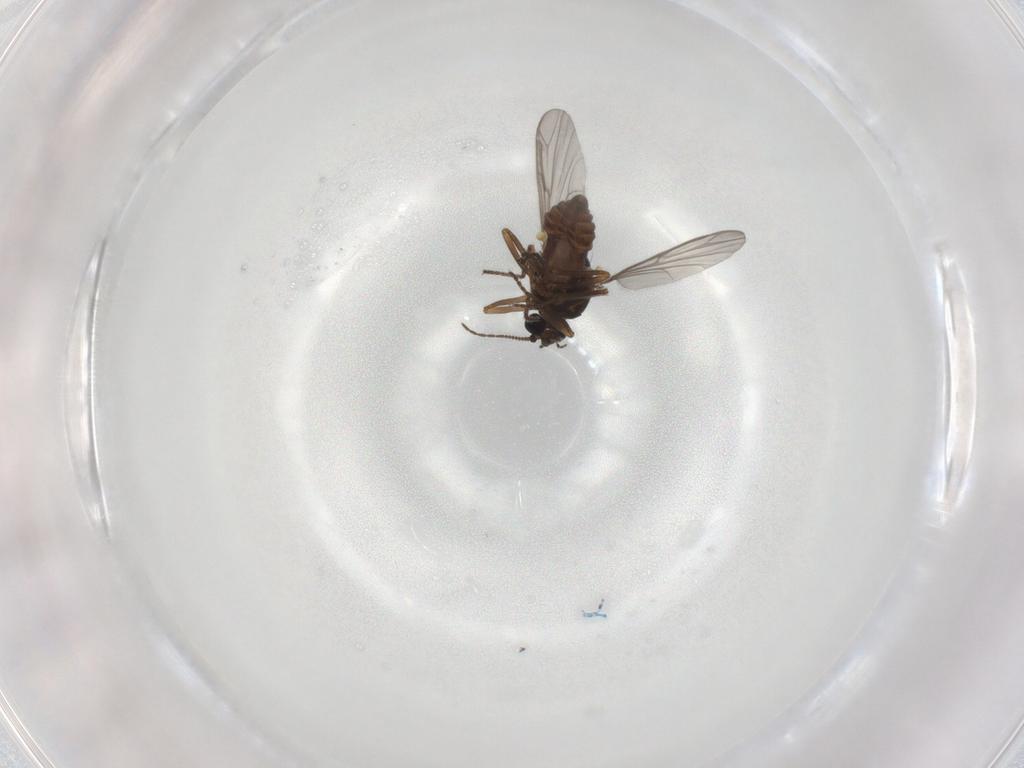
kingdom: Animalia
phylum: Arthropoda
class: Insecta
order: Diptera
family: Ceratopogonidae
